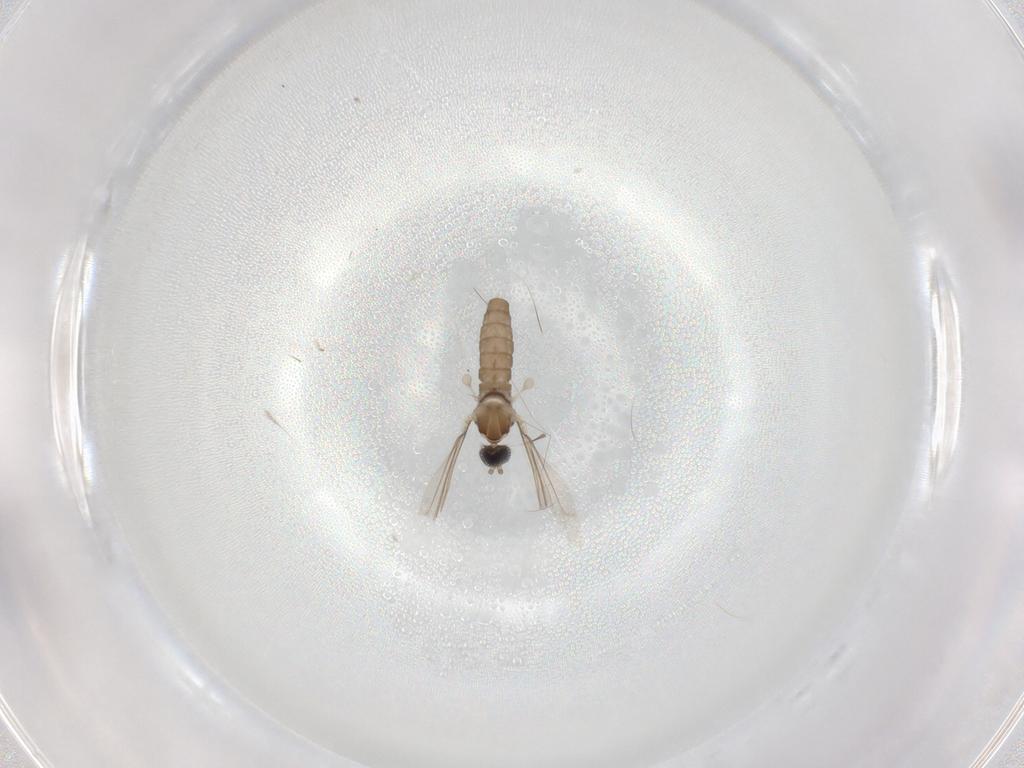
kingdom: Animalia
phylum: Arthropoda
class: Insecta
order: Diptera
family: Cecidomyiidae
